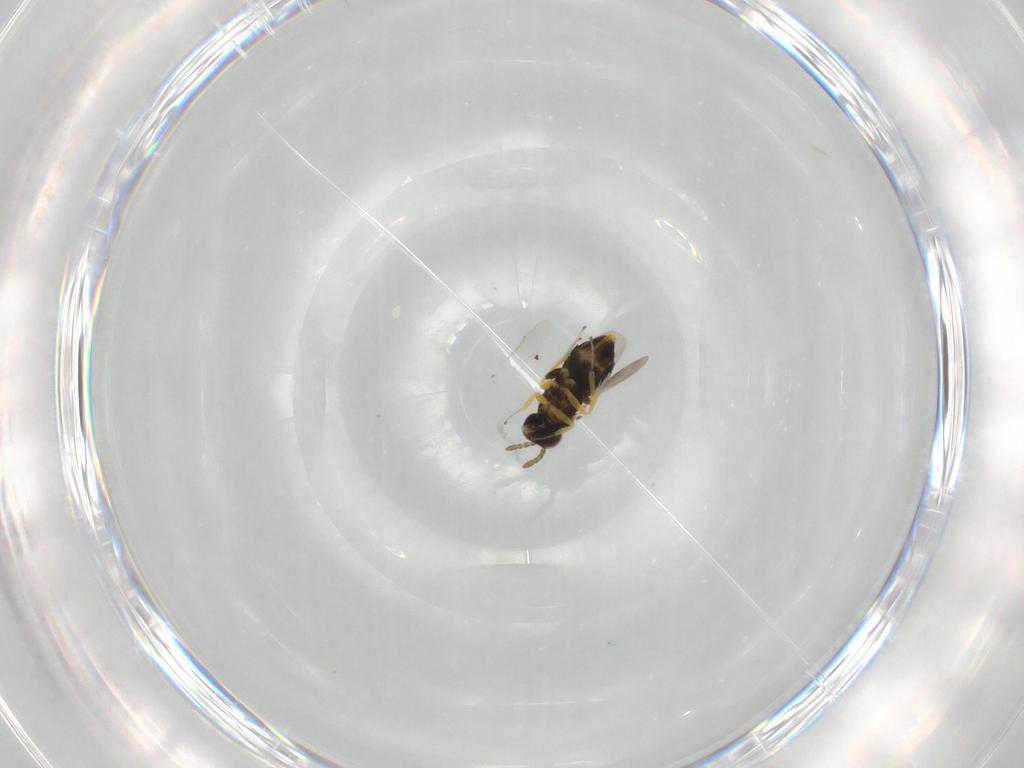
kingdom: Animalia
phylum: Arthropoda
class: Insecta
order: Hymenoptera
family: Aphelinidae
